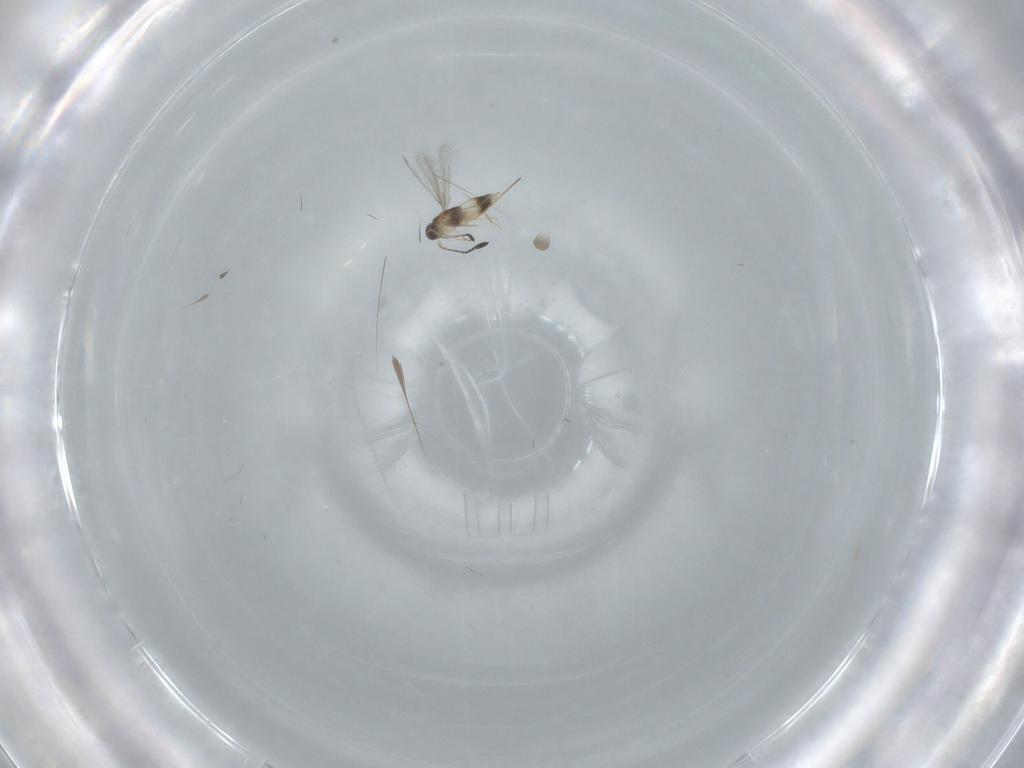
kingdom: Animalia
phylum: Arthropoda
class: Insecta
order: Hymenoptera
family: Mymaridae
